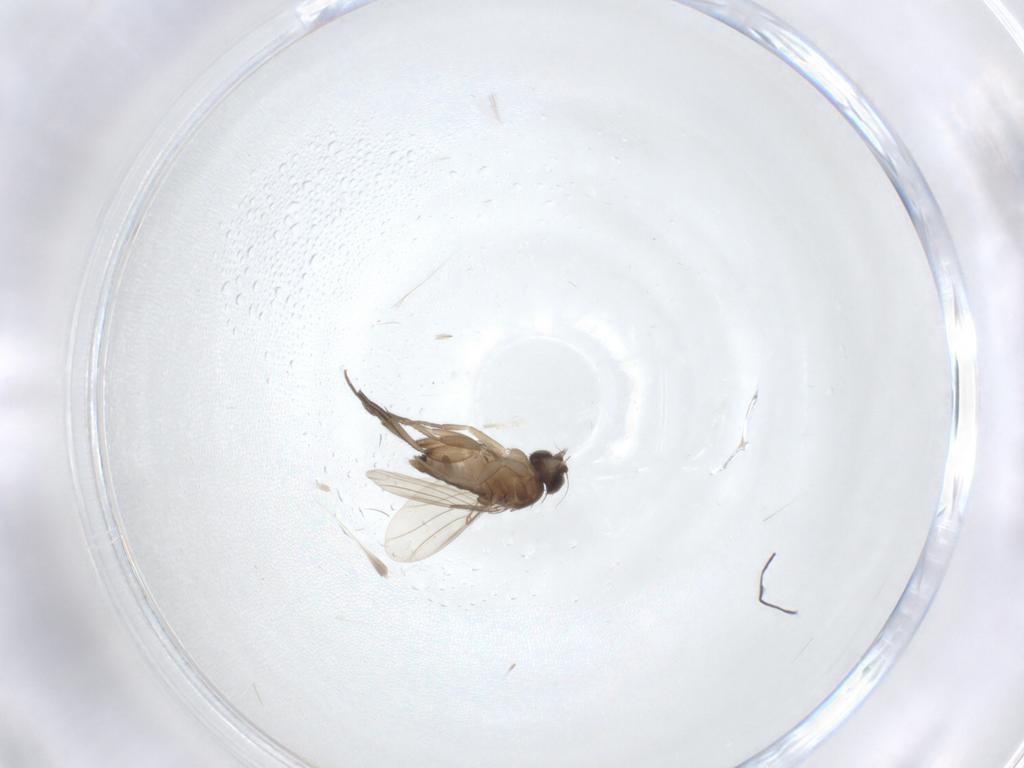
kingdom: Animalia
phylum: Arthropoda
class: Insecta
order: Diptera
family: Phoridae
